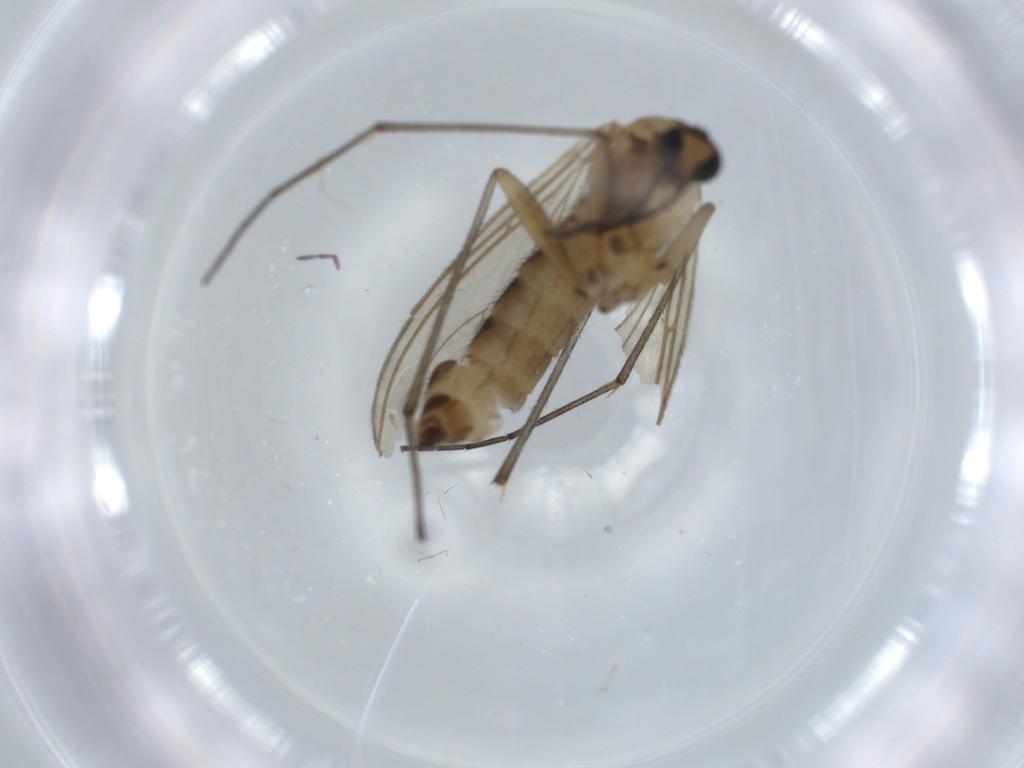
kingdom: Animalia
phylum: Arthropoda
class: Insecta
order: Diptera
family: Sciaridae
